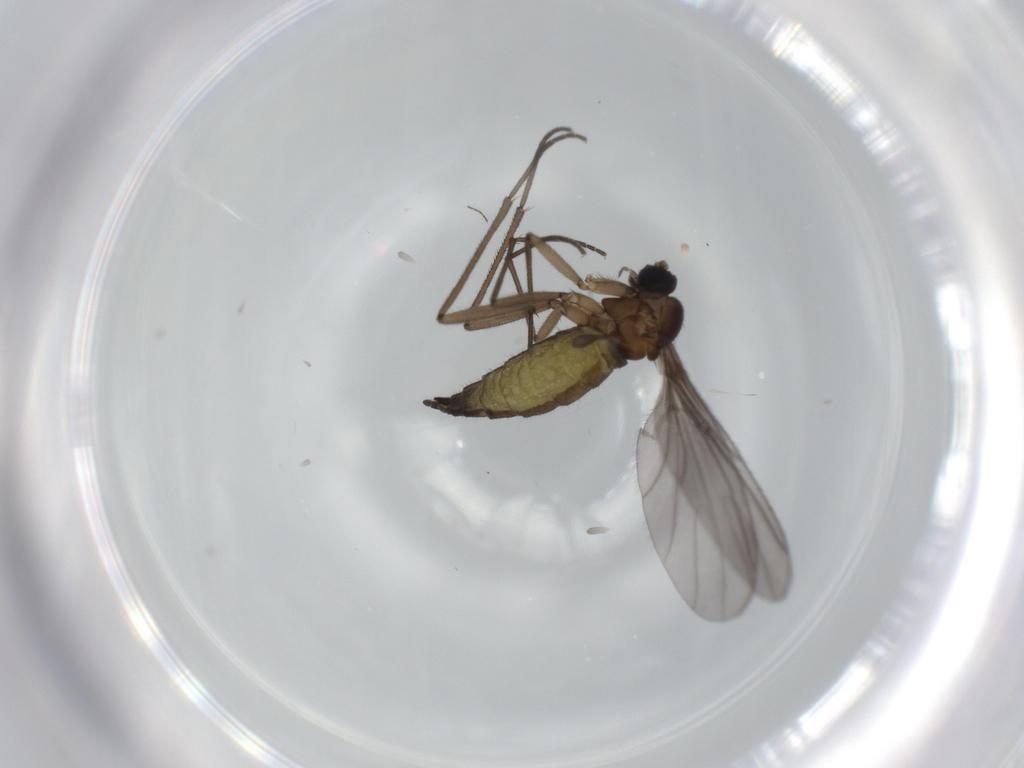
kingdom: Animalia
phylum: Arthropoda
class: Insecta
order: Diptera
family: Sciaridae
